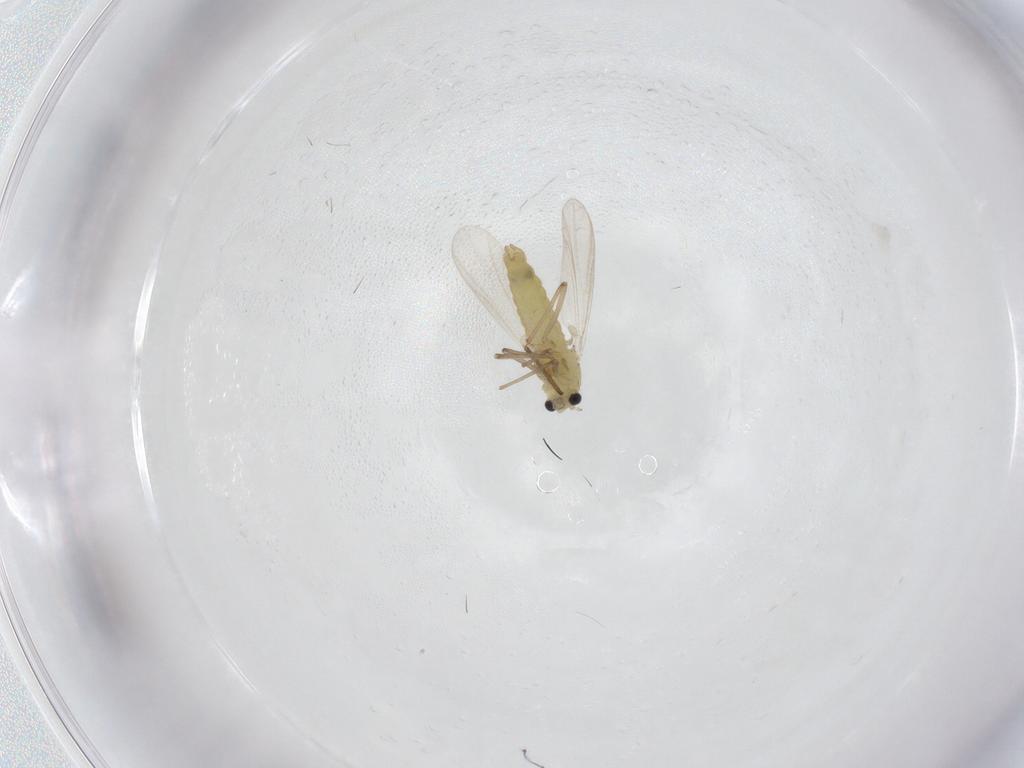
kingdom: Animalia
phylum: Arthropoda
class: Insecta
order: Diptera
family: Chironomidae
